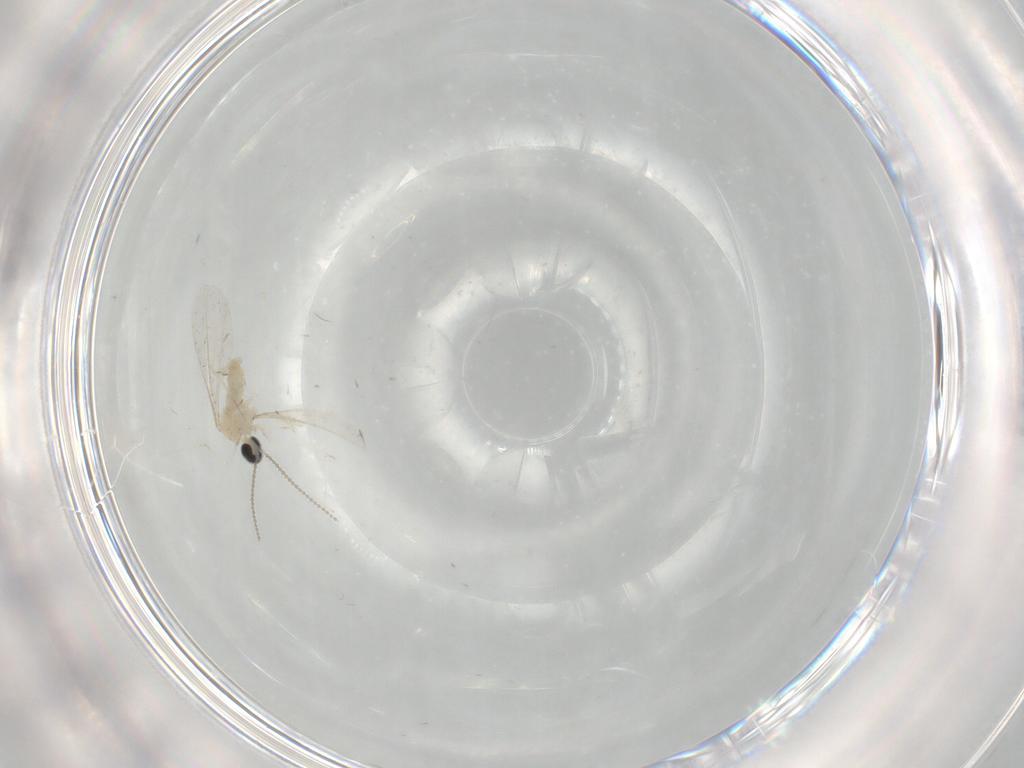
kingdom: Animalia
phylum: Arthropoda
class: Insecta
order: Diptera
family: Cecidomyiidae
